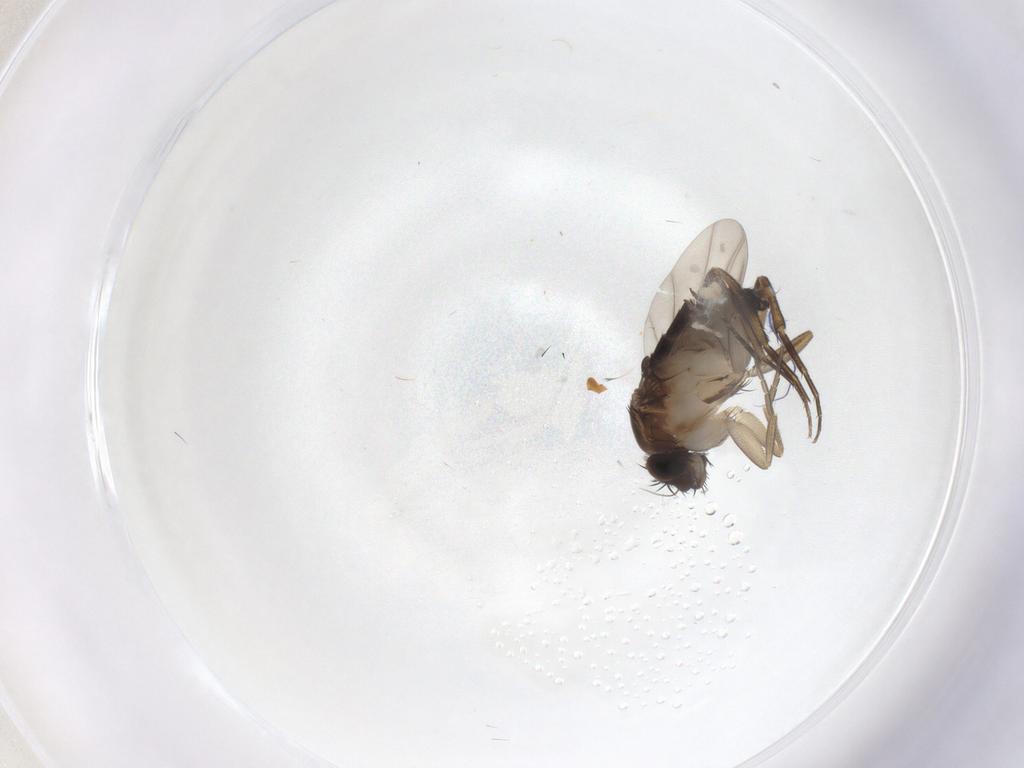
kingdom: Animalia
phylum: Arthropoda
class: Insecta
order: Diptera
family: Phoridae
